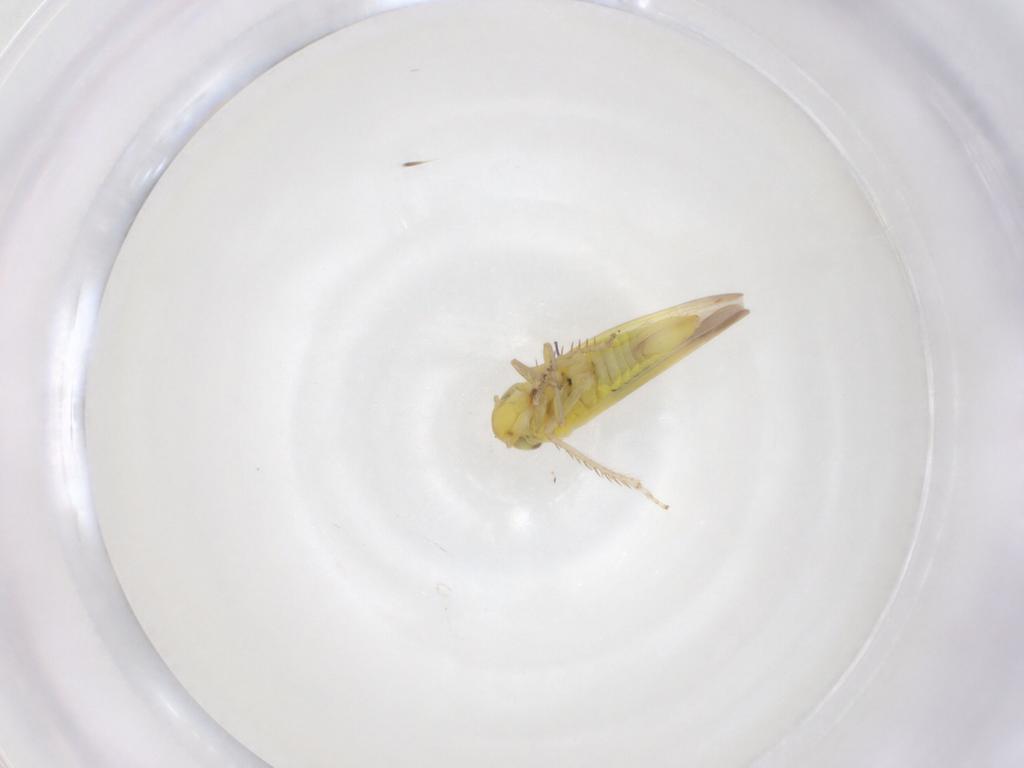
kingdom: Animalia
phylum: Arthropoda
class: Insecta
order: Hemiptera
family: Cicadellidae
